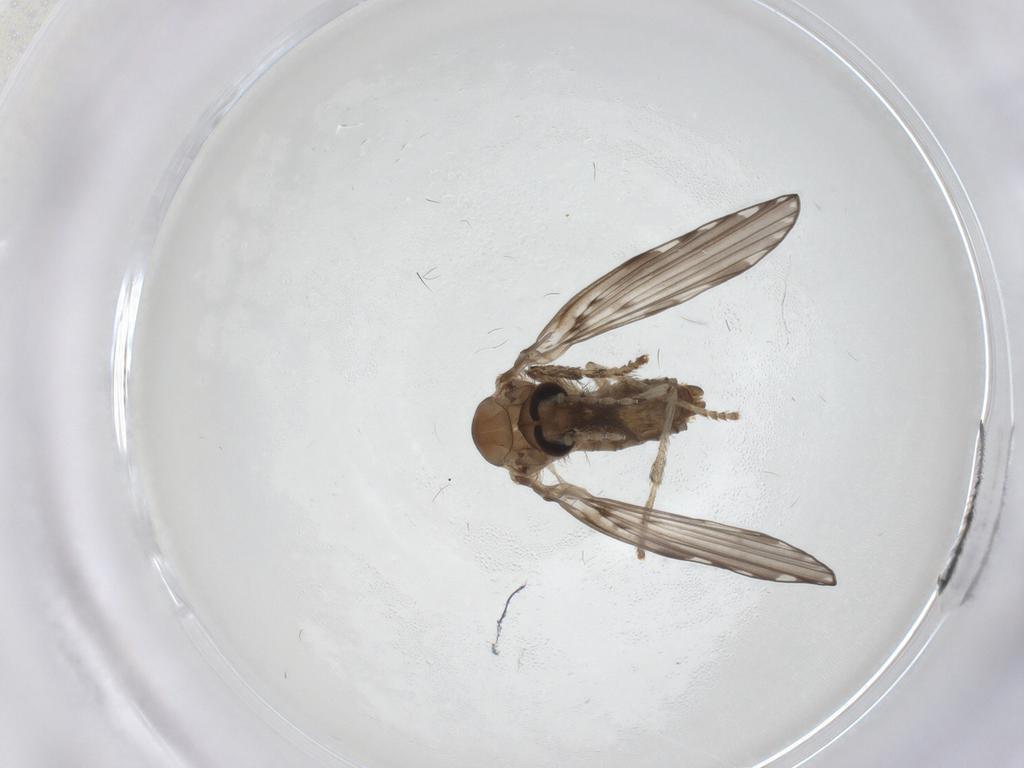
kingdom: Animalia
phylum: Arthropoda
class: Insecta
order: Diptera
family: Psychodidae
